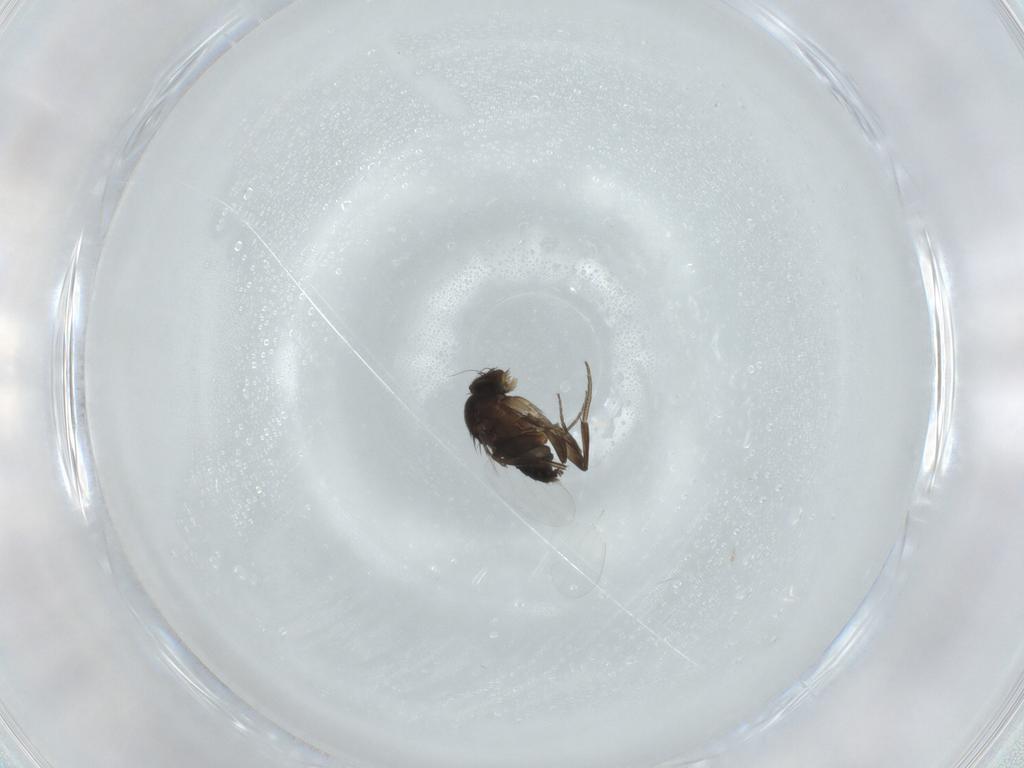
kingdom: Animalia
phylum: Arthropoda
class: Insecta
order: Diptera
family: Phoridae
